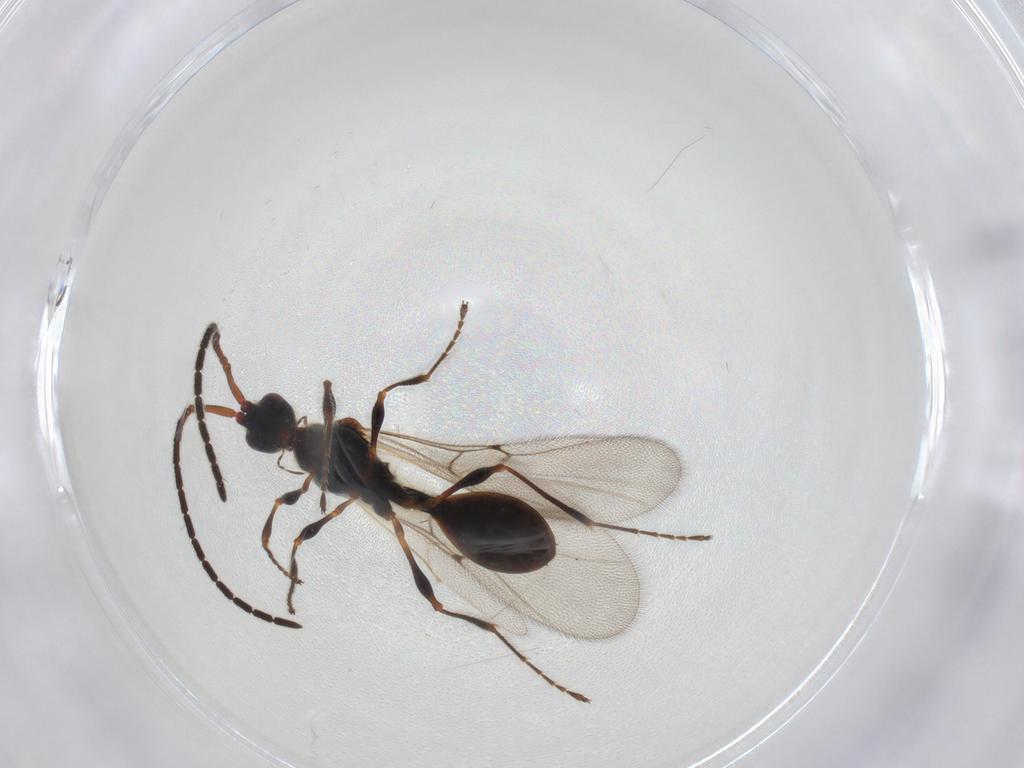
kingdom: Animalia
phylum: Arthropoda
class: Insecta
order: Hymenoptera
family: Diapriidae
